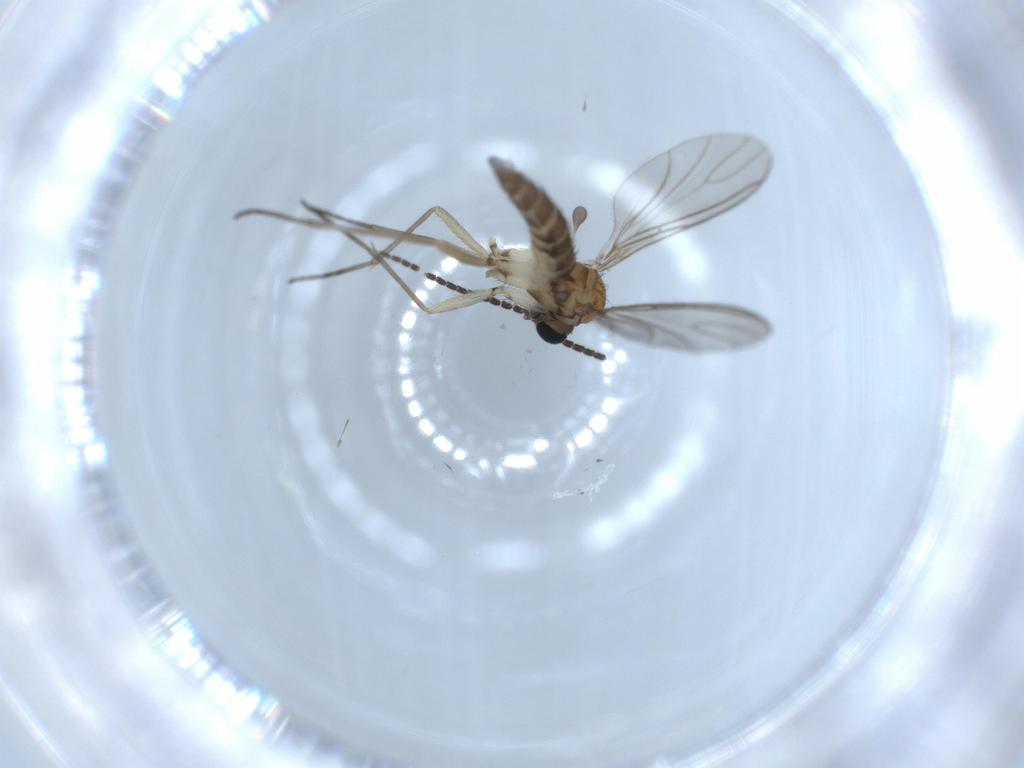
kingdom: Animalia
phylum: Arthropoda
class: Insecta
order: Diptera
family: Sciaridae
